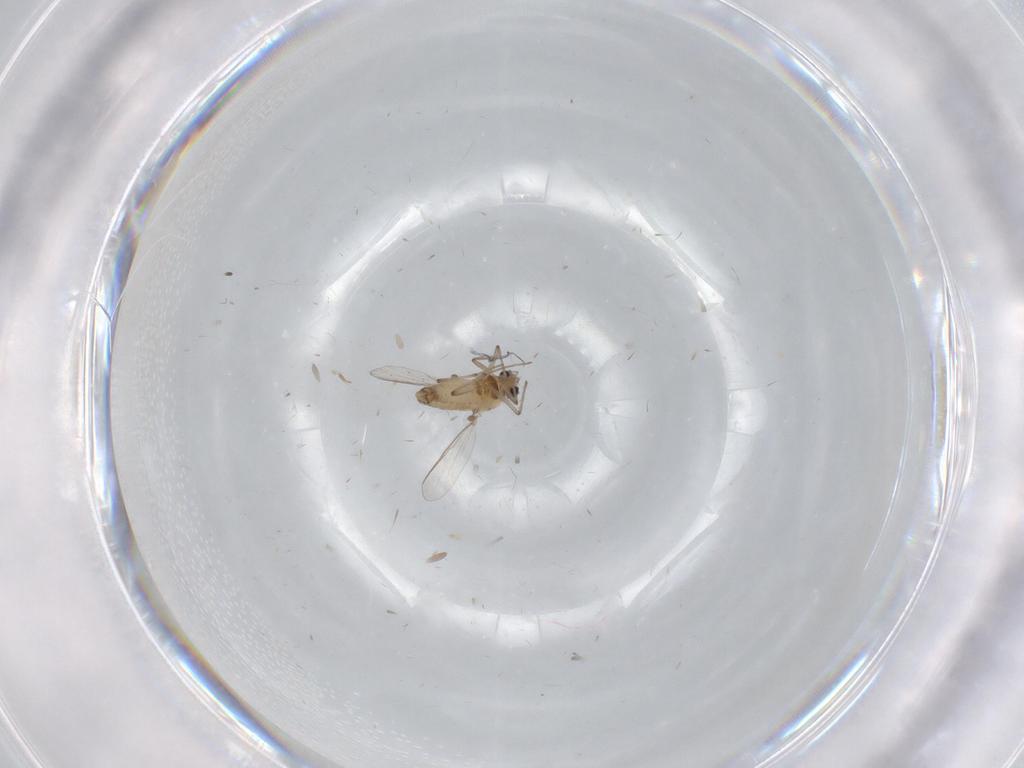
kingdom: Animalia
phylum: Arthropoda
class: Insecta
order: Diptera
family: Chironomidae
